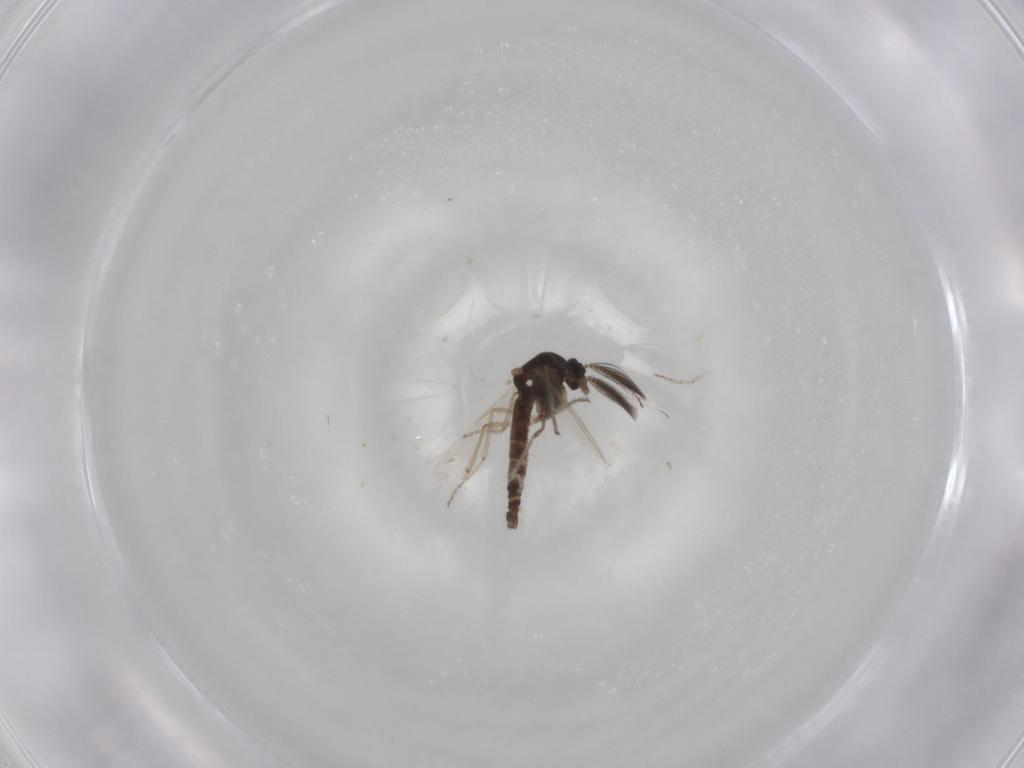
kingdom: Animalia
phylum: Arthropoda
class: Insecta
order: Diptera
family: Ceratopogonidae
